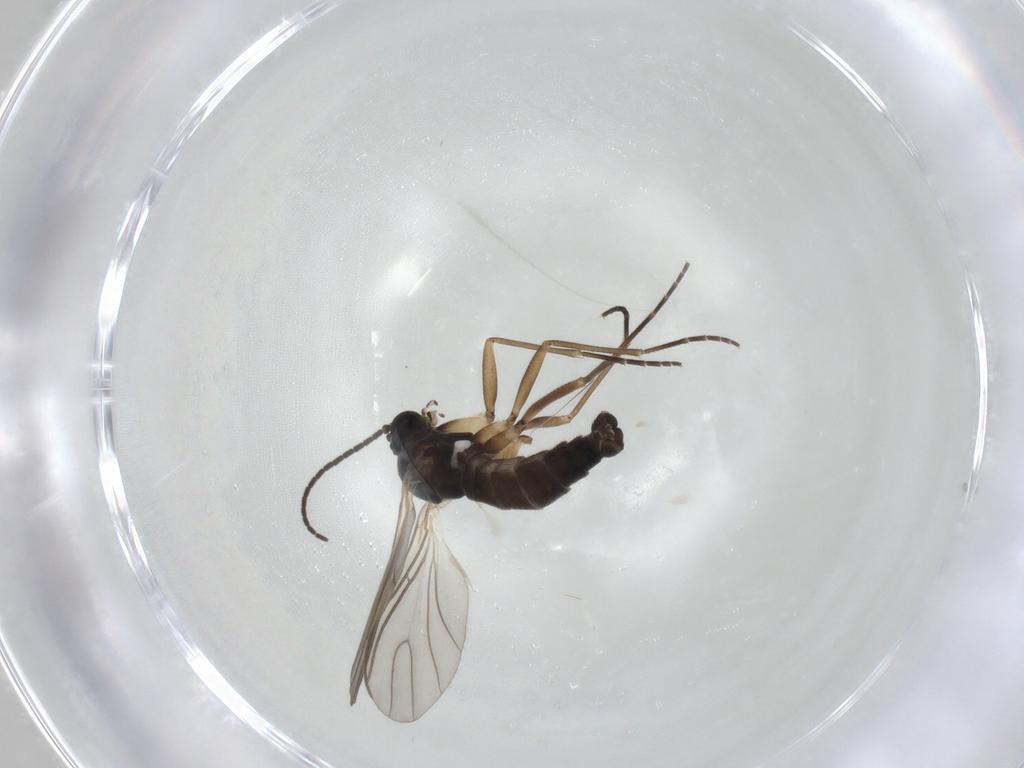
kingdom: Animalia
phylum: Arthropoda
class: Insecta
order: Diptera
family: Sciaridae
